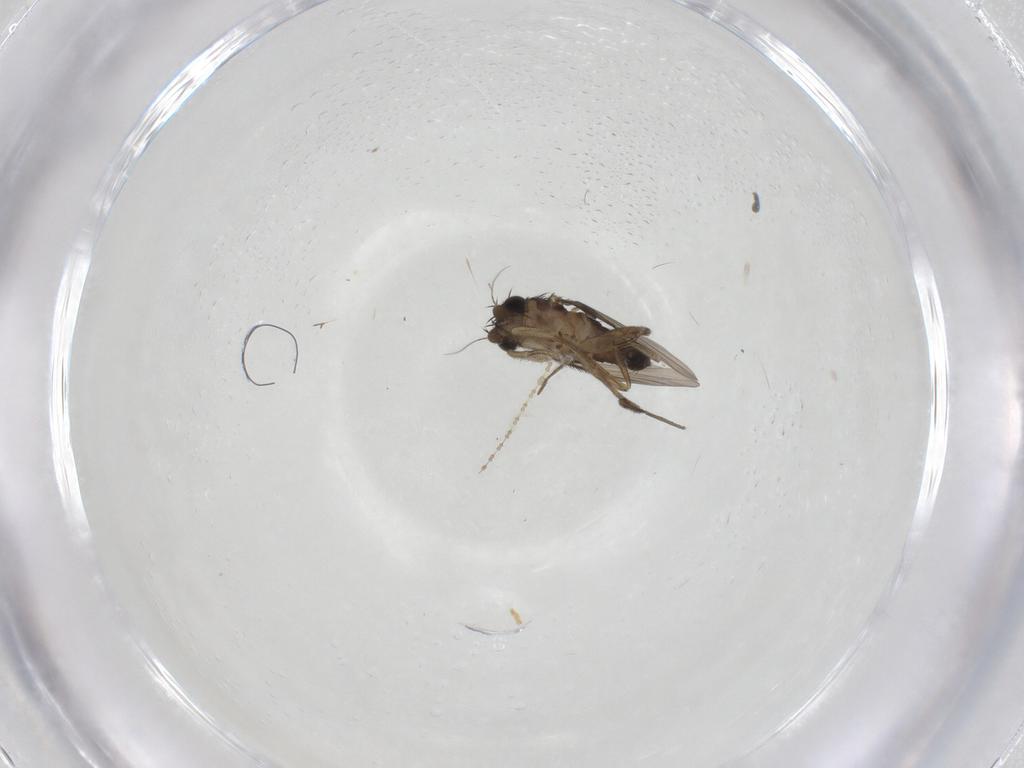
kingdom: Animalia
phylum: Arthropoda
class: Insecta
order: Diptera
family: Phoridae
